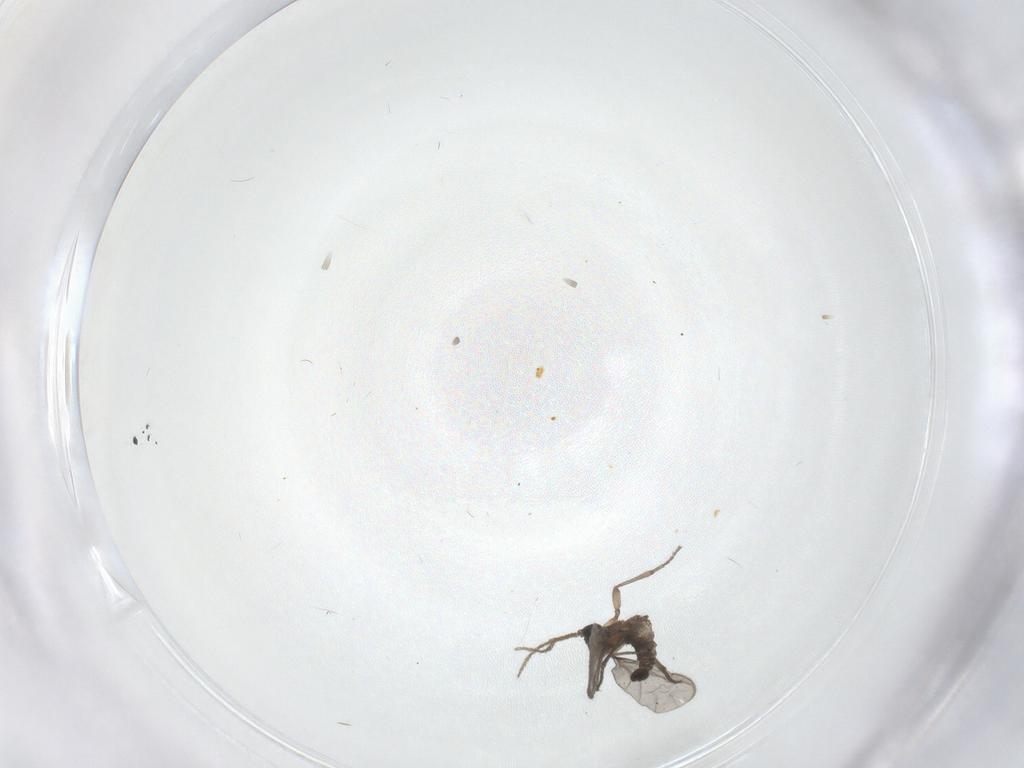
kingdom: Animalia
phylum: Arthropoda
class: Insecta
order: Diptera
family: Sciaridae
